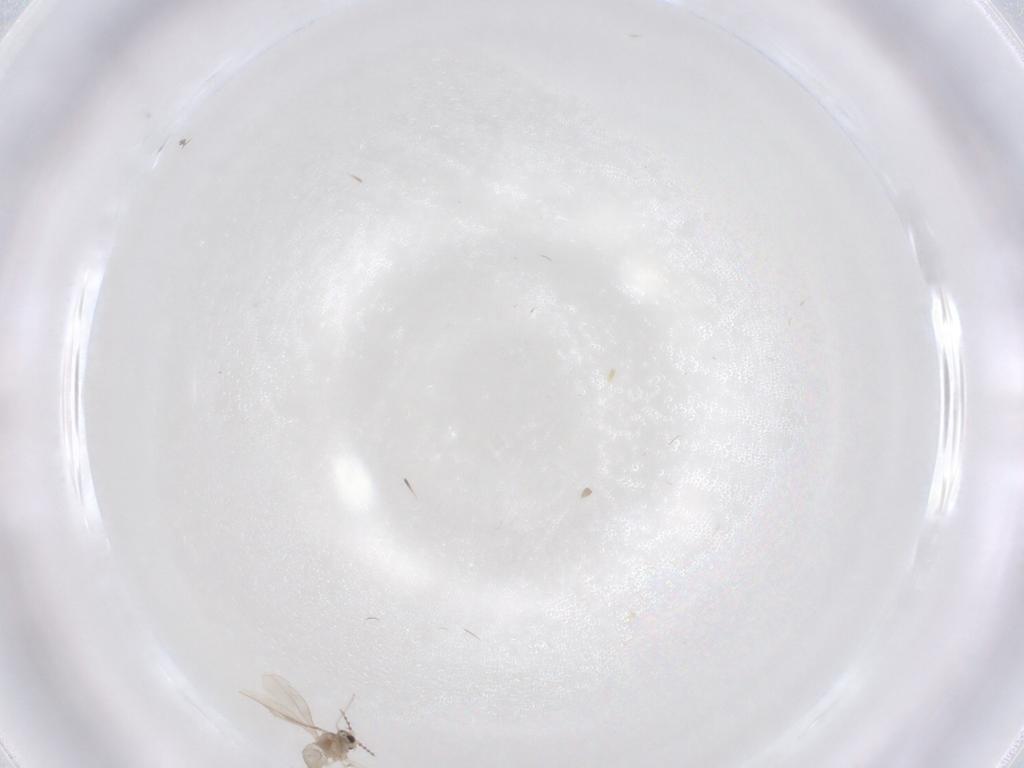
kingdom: Animalia
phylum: Arthropoda
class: Insecta
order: Diptera
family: Cecidomyiidae
